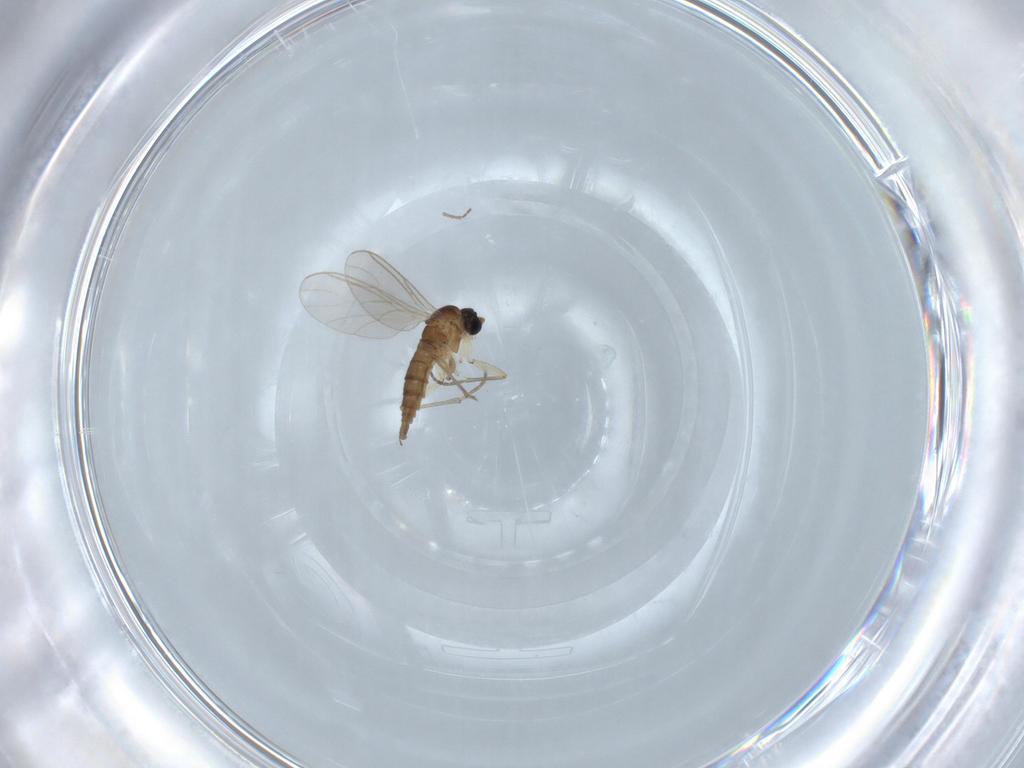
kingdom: Animalia
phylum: Arthropoda
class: Insecta
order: Diptera
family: Sciaridae
